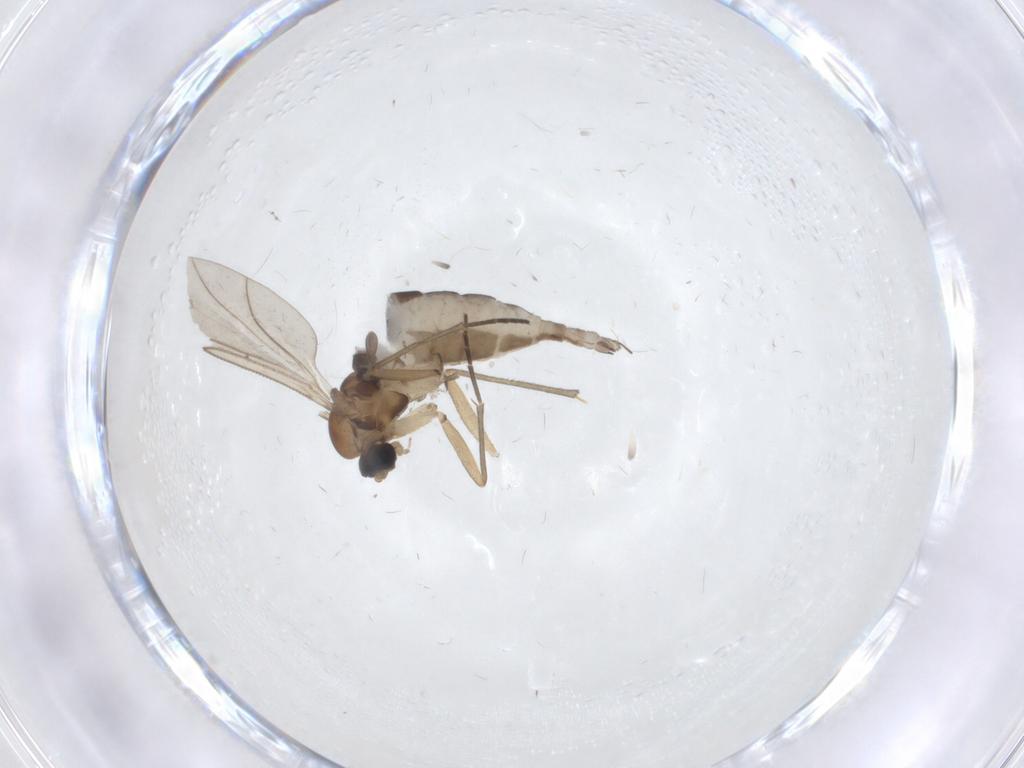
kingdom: Animalia
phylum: Arthropoda
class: Insecta
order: Diptera
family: Sciaridae
